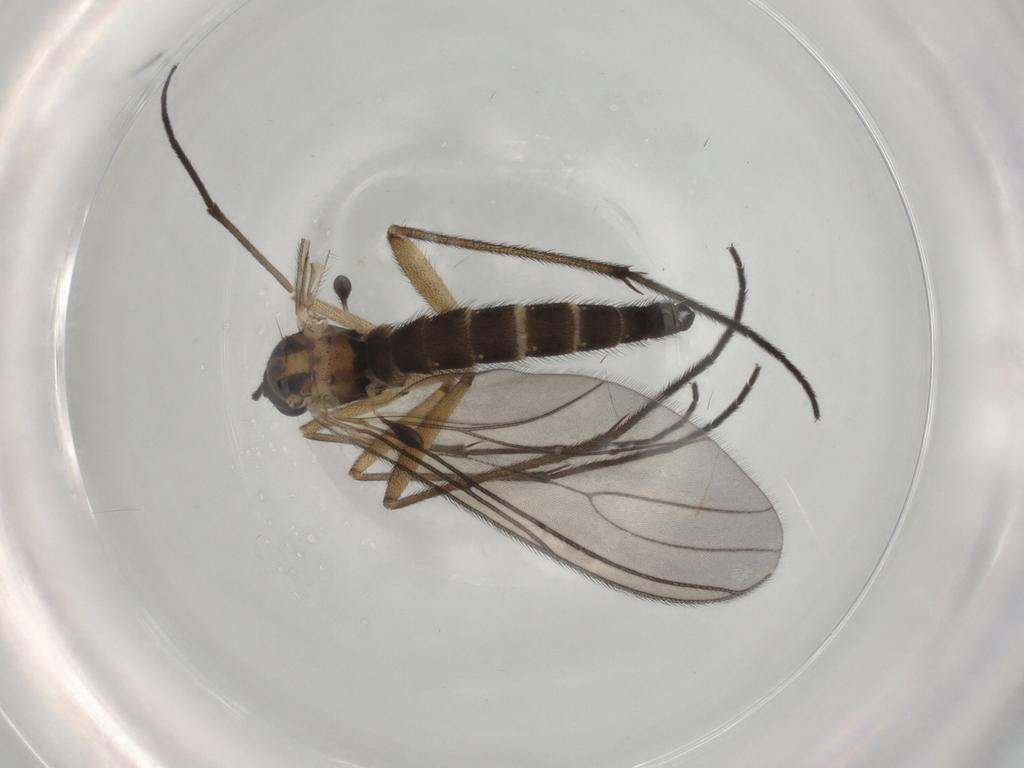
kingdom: Animalia
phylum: Arthropoda
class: Insecta
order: Diptera
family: Sciaridae
